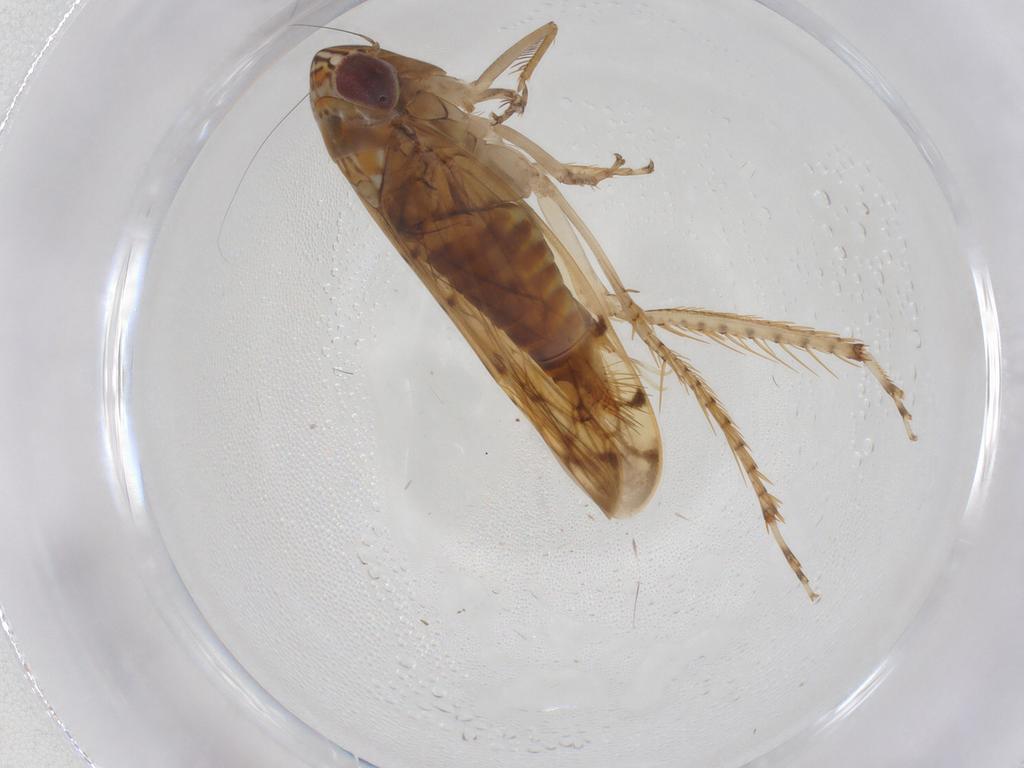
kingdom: Animalia
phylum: Arthropoda
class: Insecta
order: Hemiptera
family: Cicadellidae
